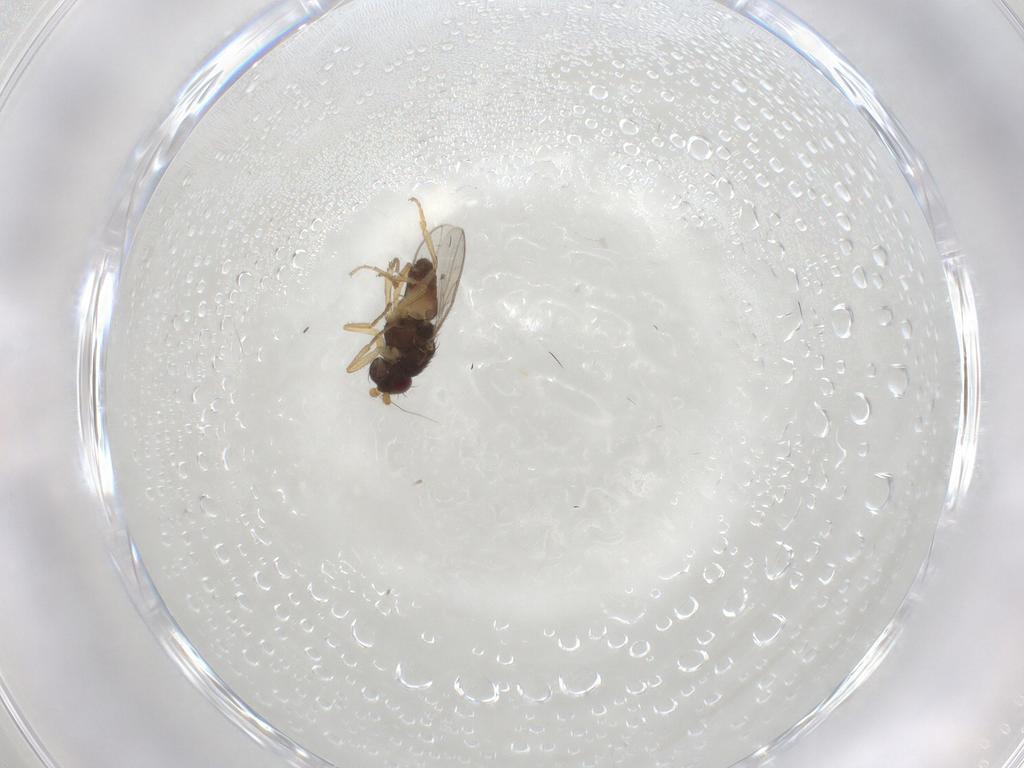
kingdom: Animalia
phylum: Arthropoda
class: Insecta
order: Diptera
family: Sphaeroceridae
